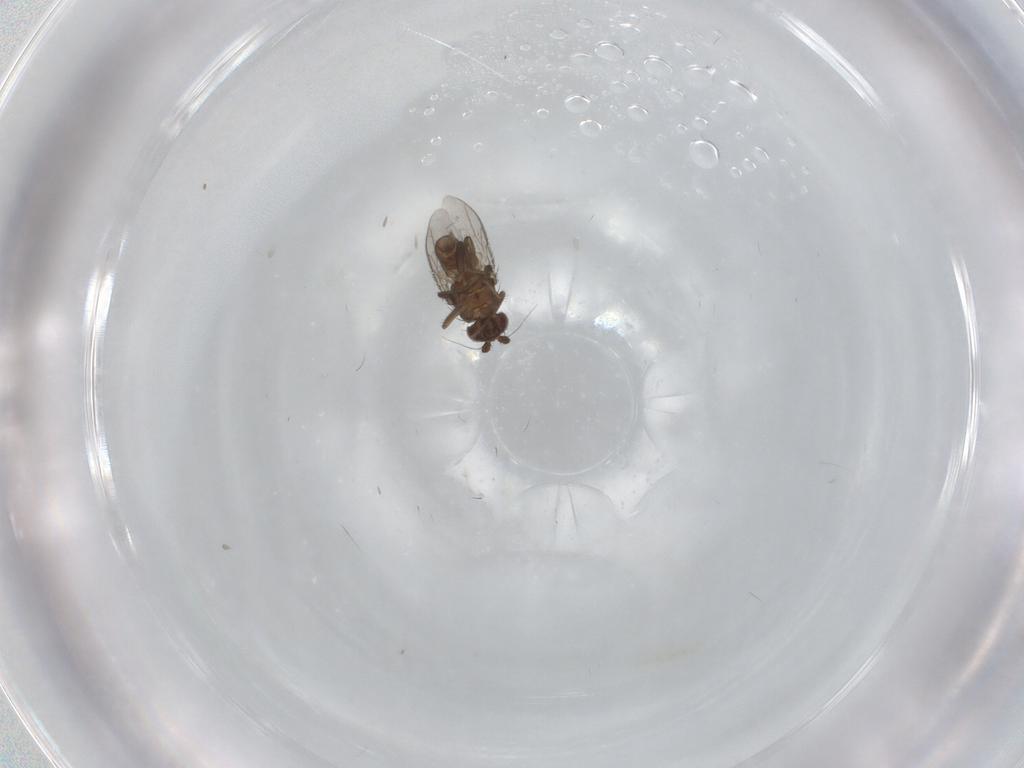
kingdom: Animalia
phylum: Arthropoda
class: Insecta
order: Diptera
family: Sphaeroceridae
